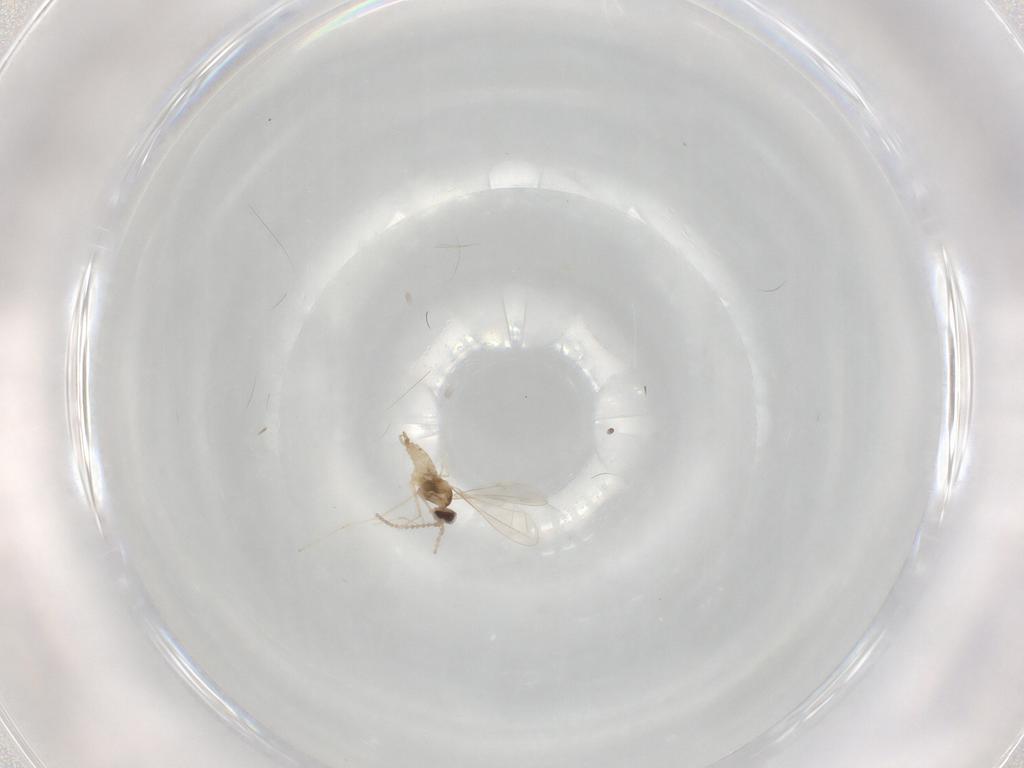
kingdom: Animalia
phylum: Arthropoda
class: Insecta
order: Diptera
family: Cecidomyiidae
